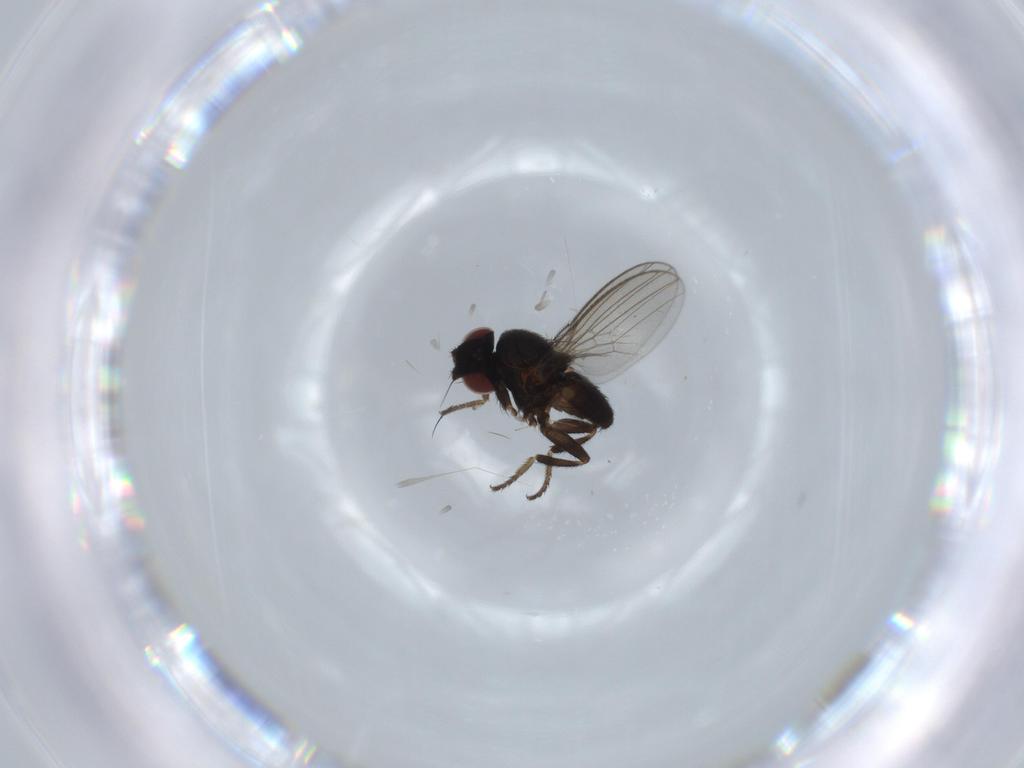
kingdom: Animalia
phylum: Arthropoda
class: Insecta
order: Diptera
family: Milichiidae
